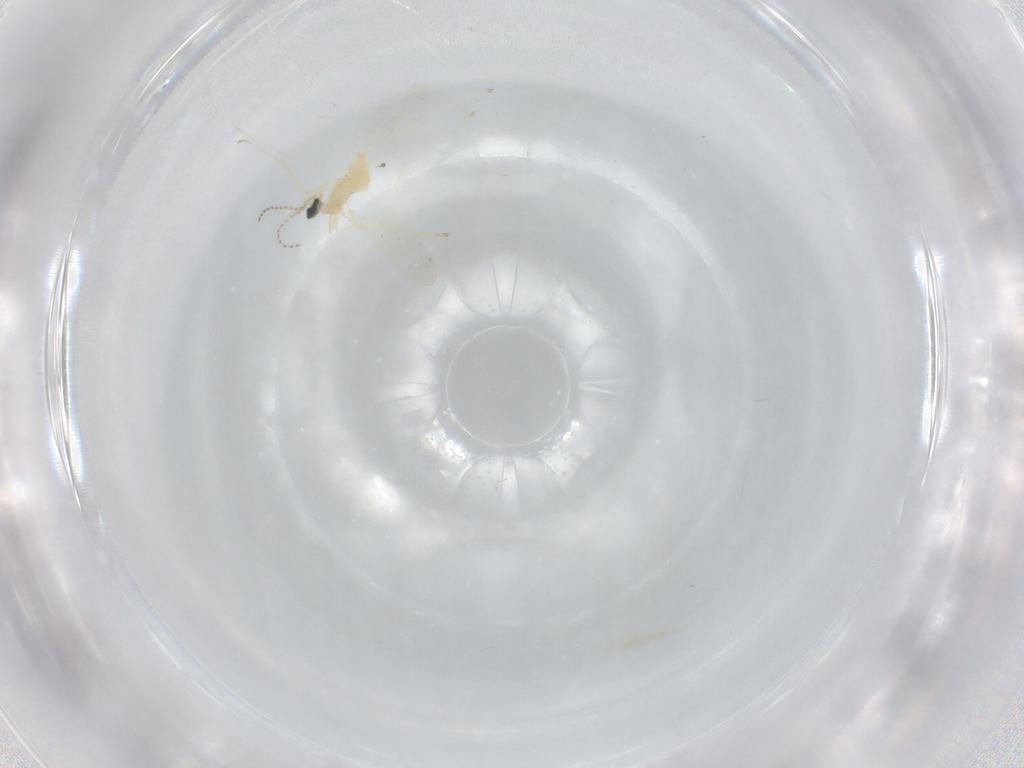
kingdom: Animalia
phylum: Arthropoda
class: Insecta
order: Diptera
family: Cecidomyiidae
